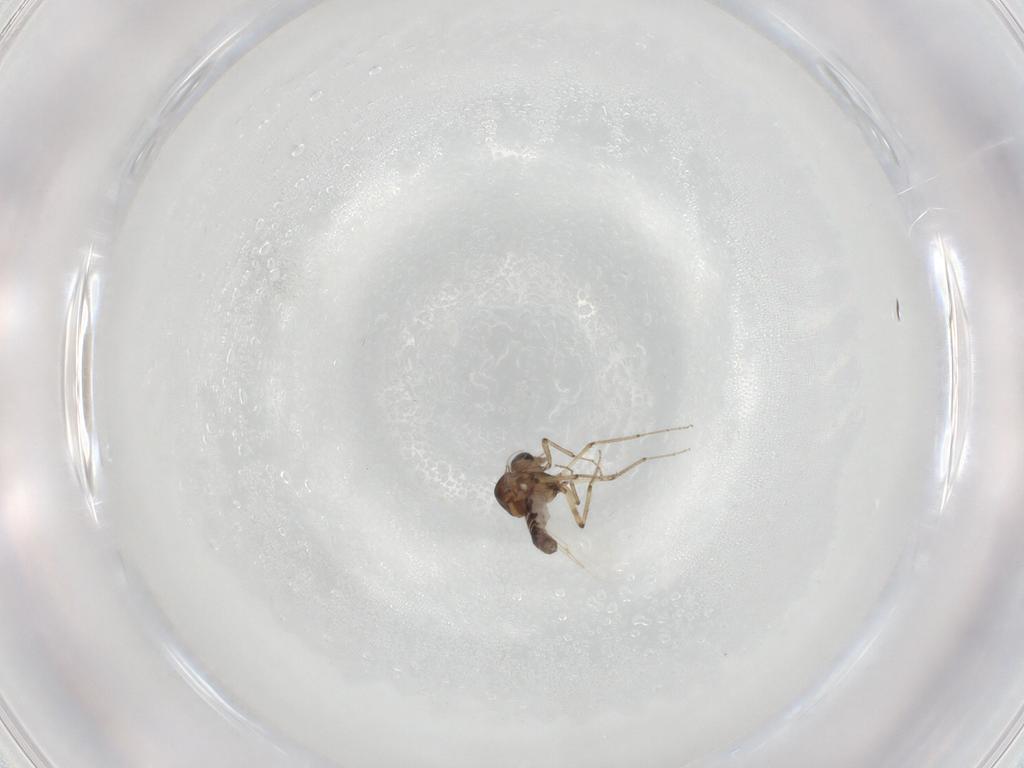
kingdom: Animalia
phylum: Arthropoda
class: Insecta
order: Diptera
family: Ceratopogonidae
